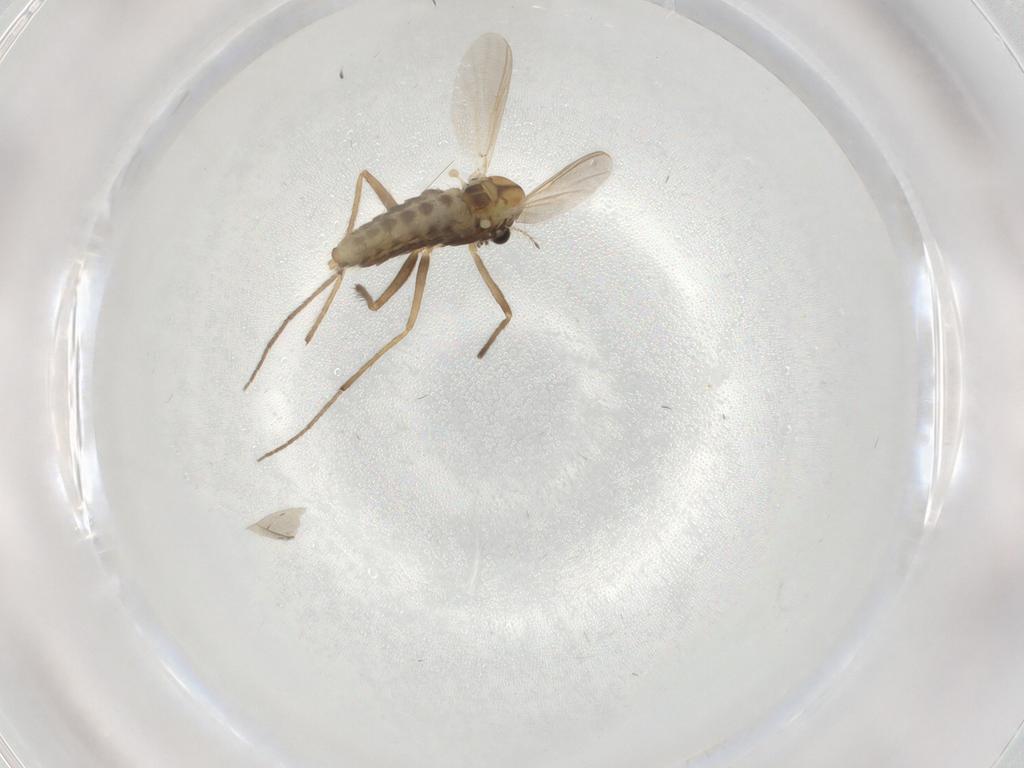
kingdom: Animalia
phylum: Arthropoda
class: Insecta
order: Diptera
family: Chironomidae
